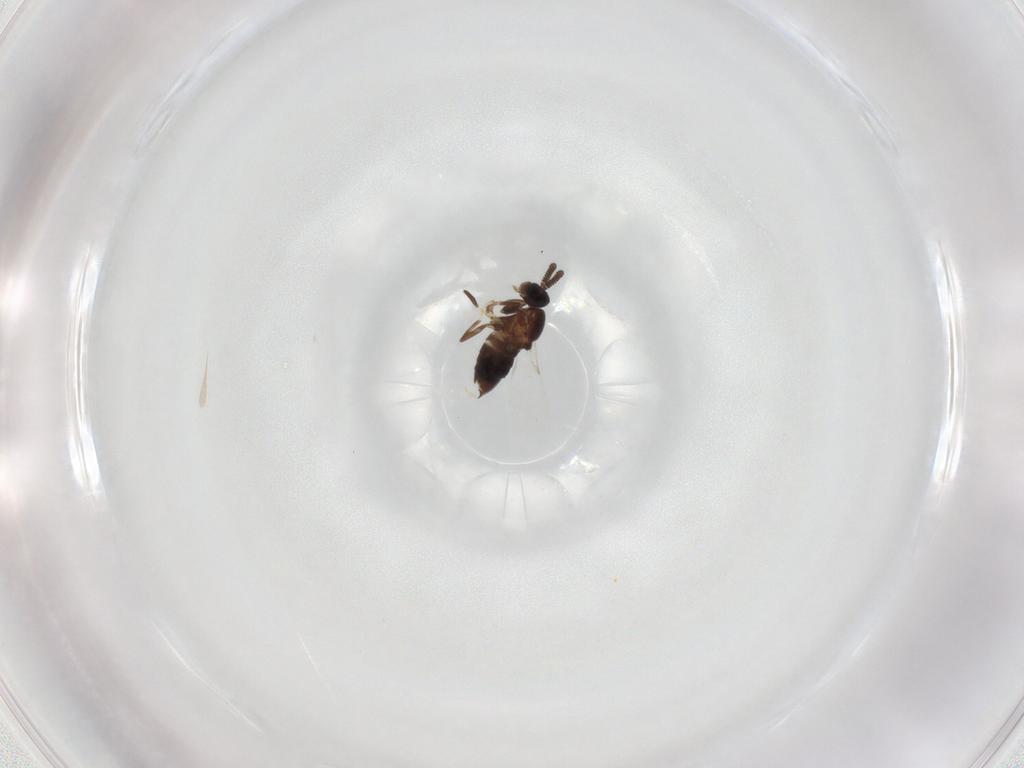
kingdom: Animalia
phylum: Arthropoda
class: Insecta
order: Diptera
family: Scatopsidae
